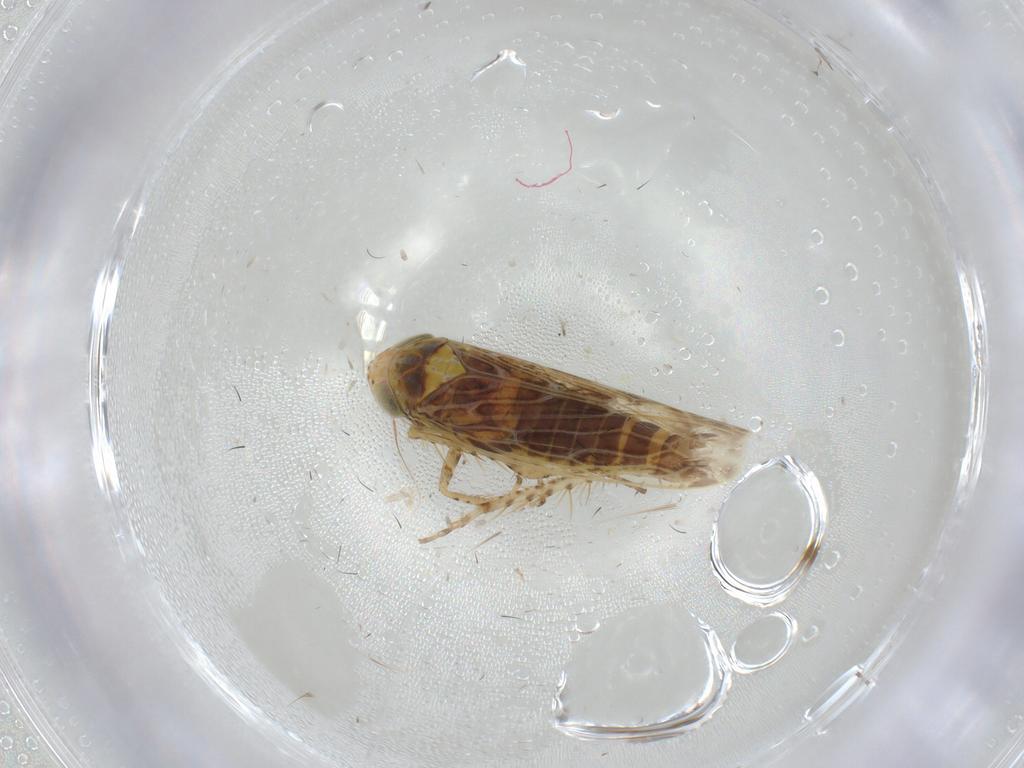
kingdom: Animalia
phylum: Arthropoda
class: Insecta
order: Hemiptera
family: Cicadellidae
